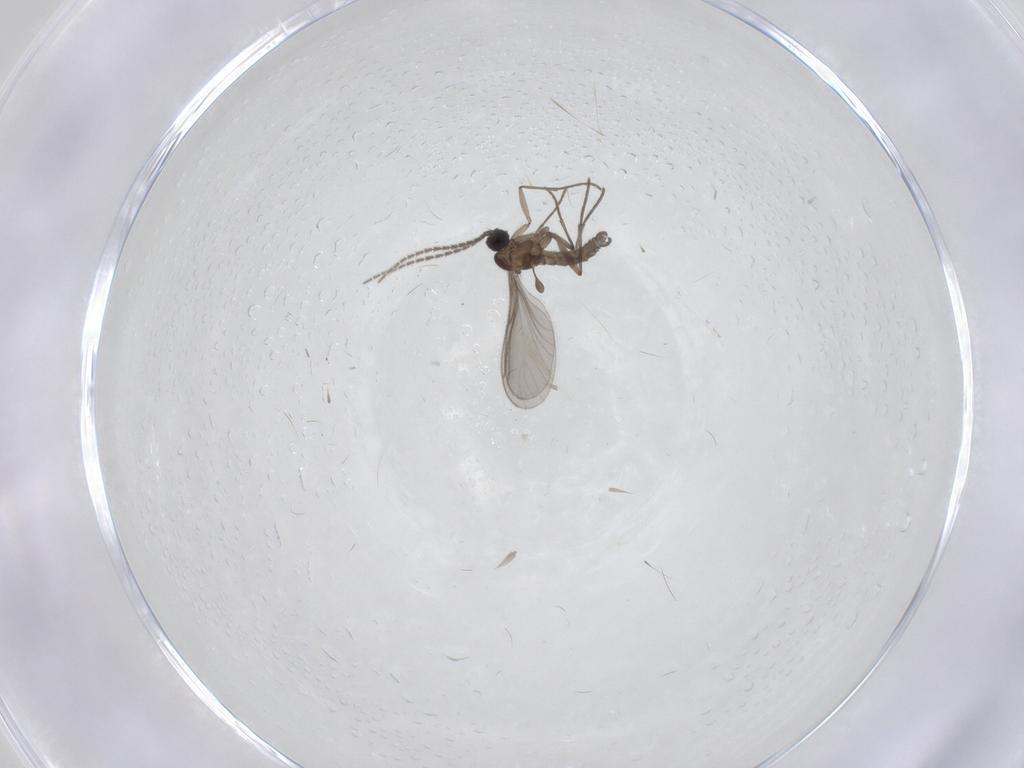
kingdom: Animalia
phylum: Arthropoda
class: Insecta
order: Diptera
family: Sciaridae
